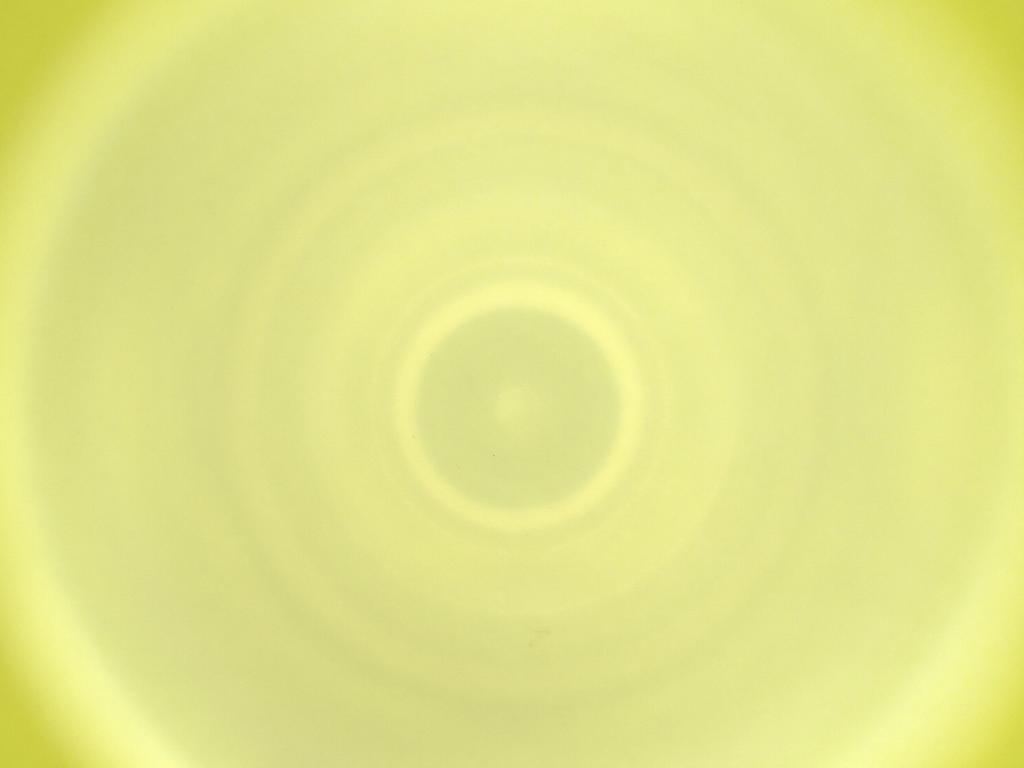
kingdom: Animalia
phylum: Arthropoda
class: Insecta
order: Diptera
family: Cecidomyiidae
